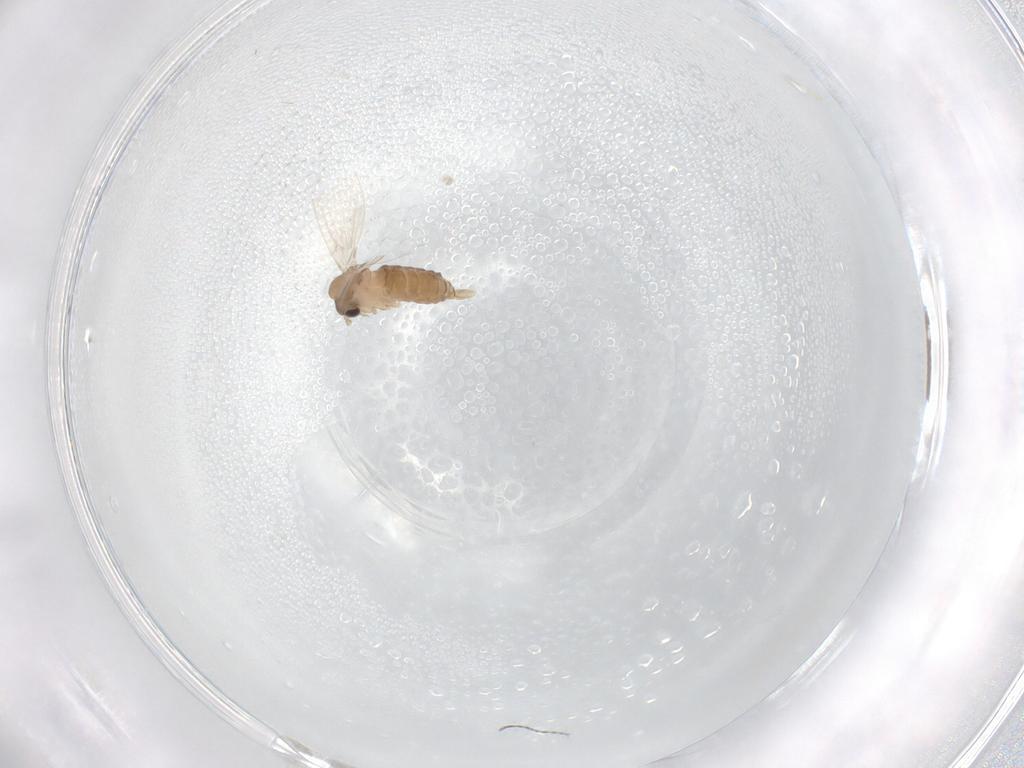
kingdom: Animalia
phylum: Arthropoda
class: Insecta
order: Diptera
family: Psychodidae
